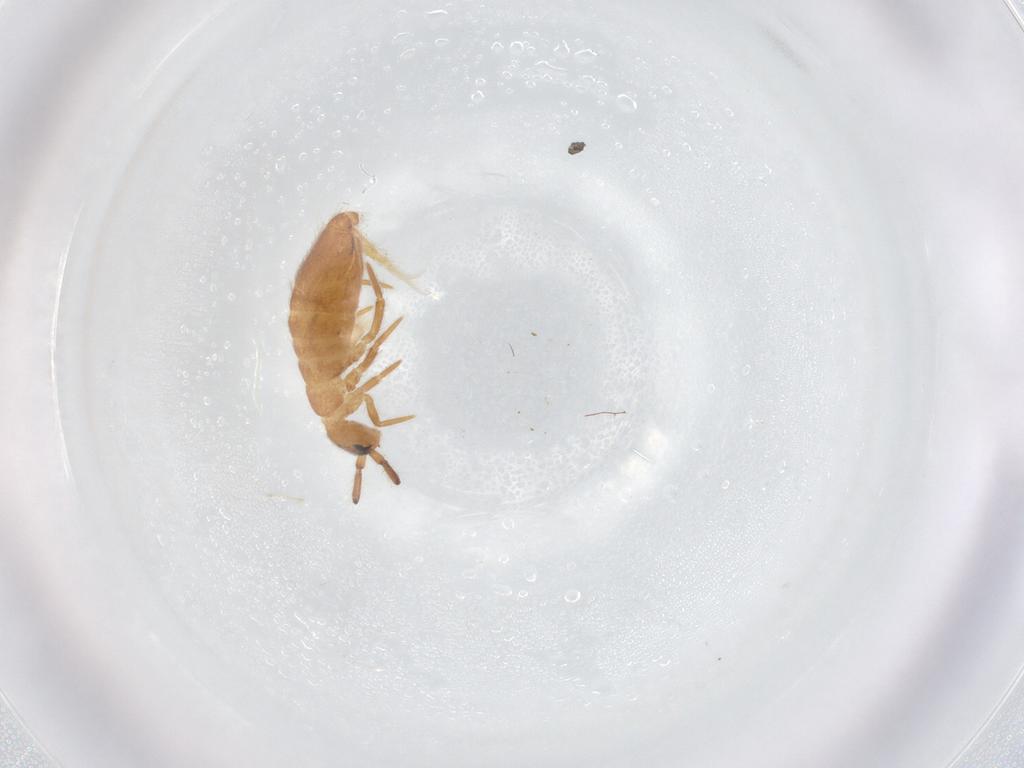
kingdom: Animalia
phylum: Arthropoda
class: Collembola
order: Entomobryomorpha
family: Entomobryidae
